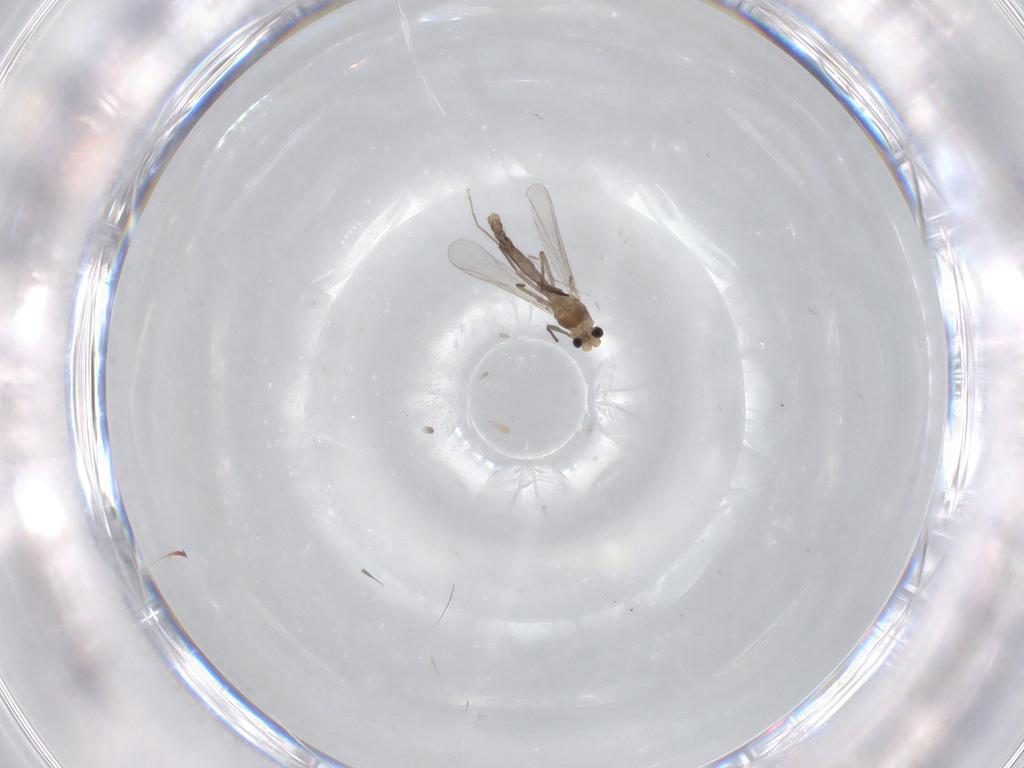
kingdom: Animalia
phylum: Arthropoda
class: Insecta
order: Diptera
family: Chironomidae
